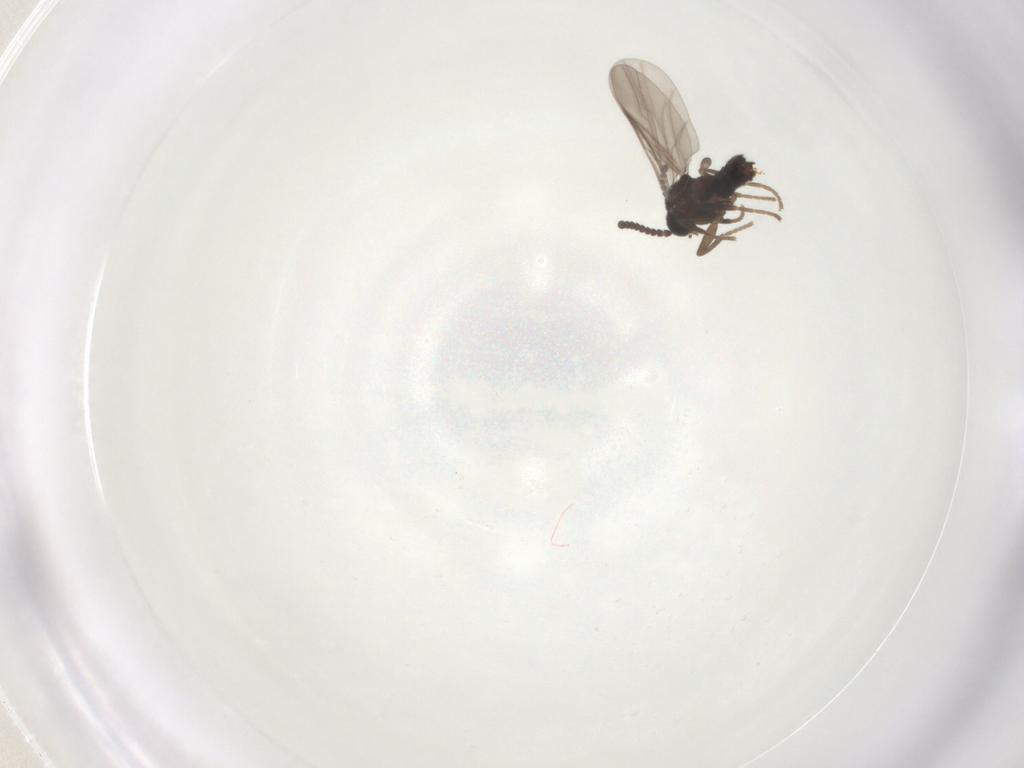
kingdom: Animalia
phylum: Arthropoda
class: Insecta
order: Diptera
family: Scatopsidae
